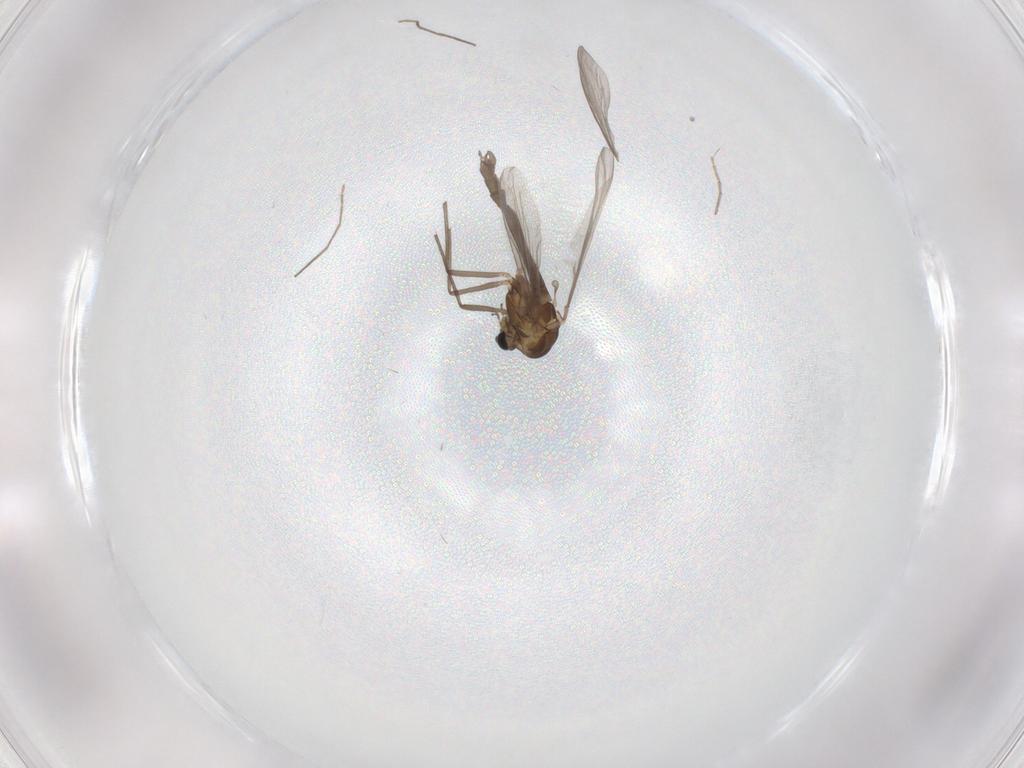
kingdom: Animalia
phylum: Arthropoda
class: Insecta
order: Diptera
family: Chironomidae
